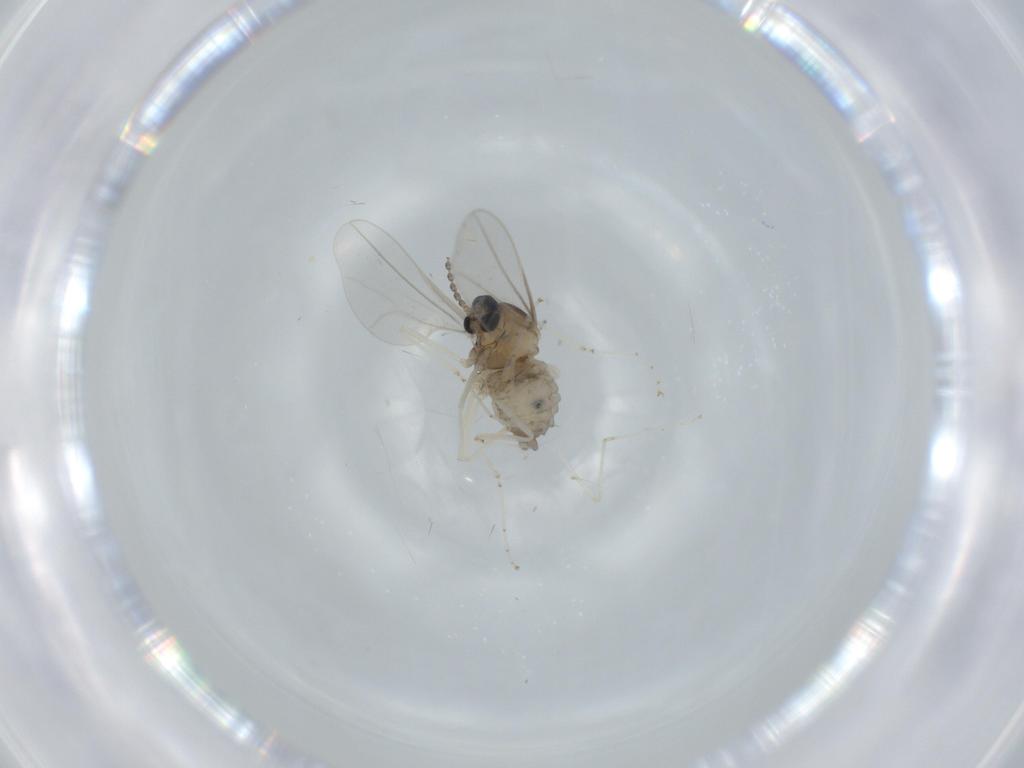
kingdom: Animalia
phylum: Arthropoda
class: Insecta
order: Diptera
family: Cecidomyiidae
